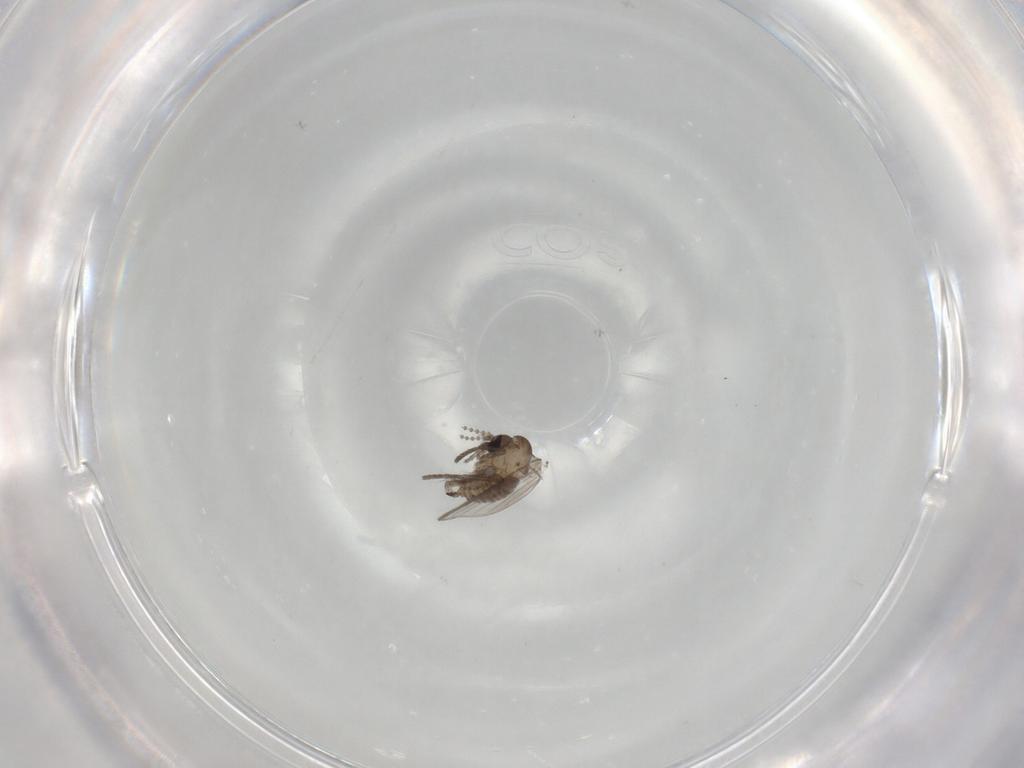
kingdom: Animalia
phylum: Arthropoda
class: Insecta
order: Diptera
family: Psychodidae
